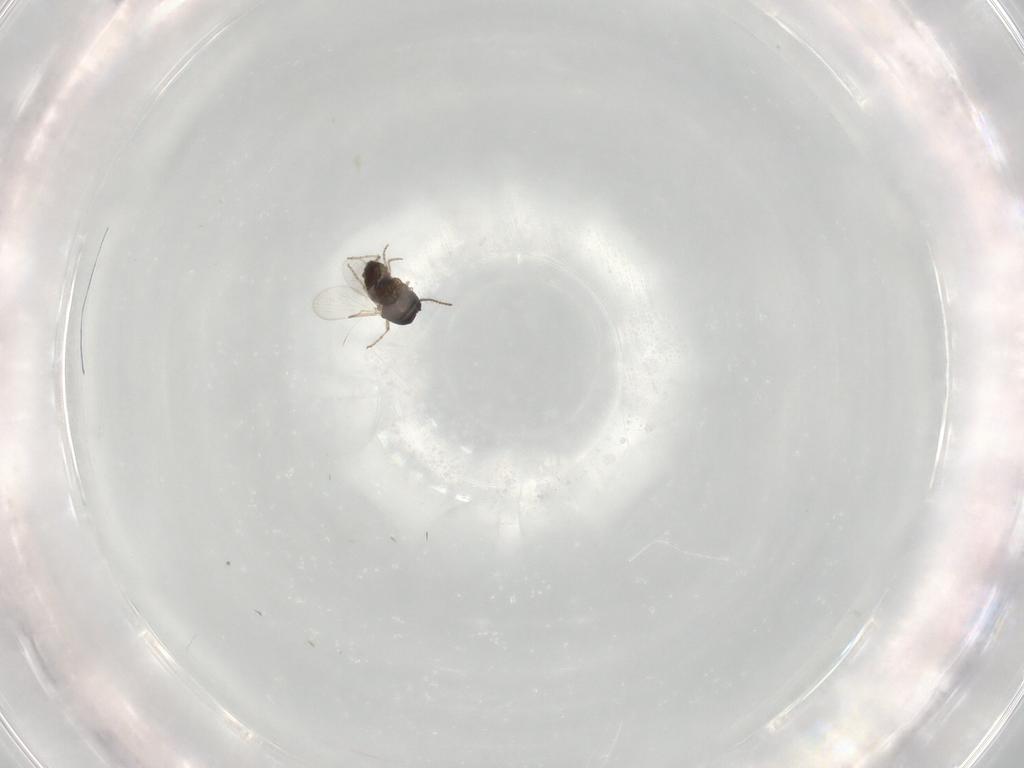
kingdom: Animalia
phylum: Arthropoda
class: Insecta
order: Diptera
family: Ceratopogonidae
